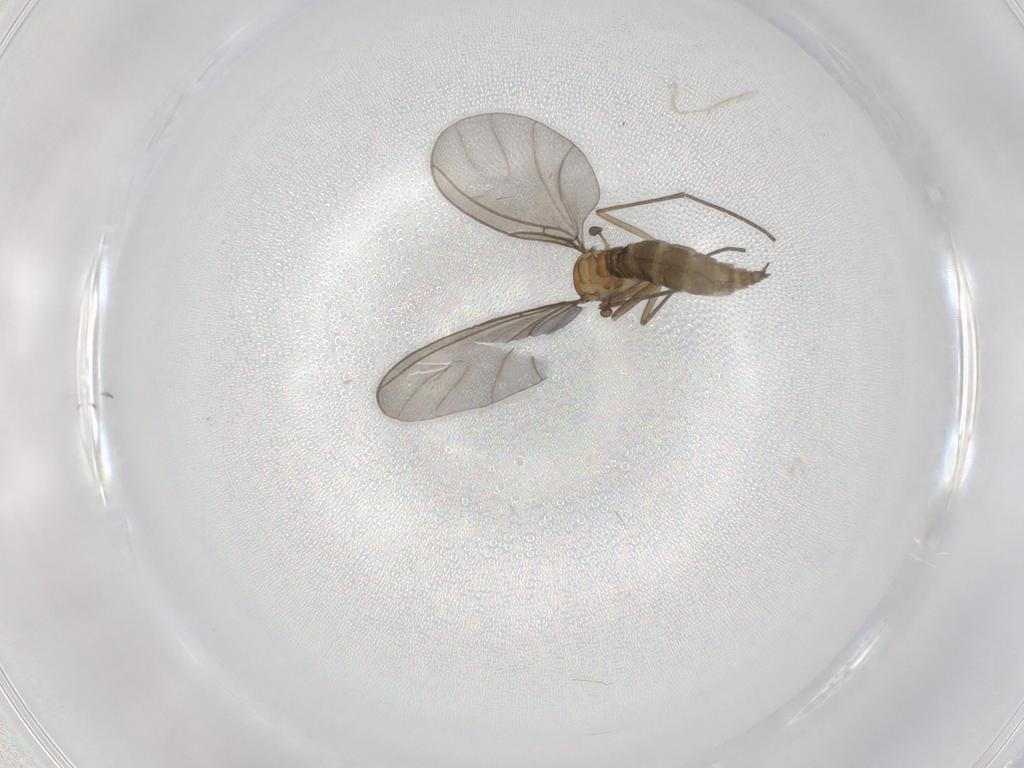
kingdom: Animalia
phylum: Arthropoda
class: Insecta
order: Diptera
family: Sciaridae
